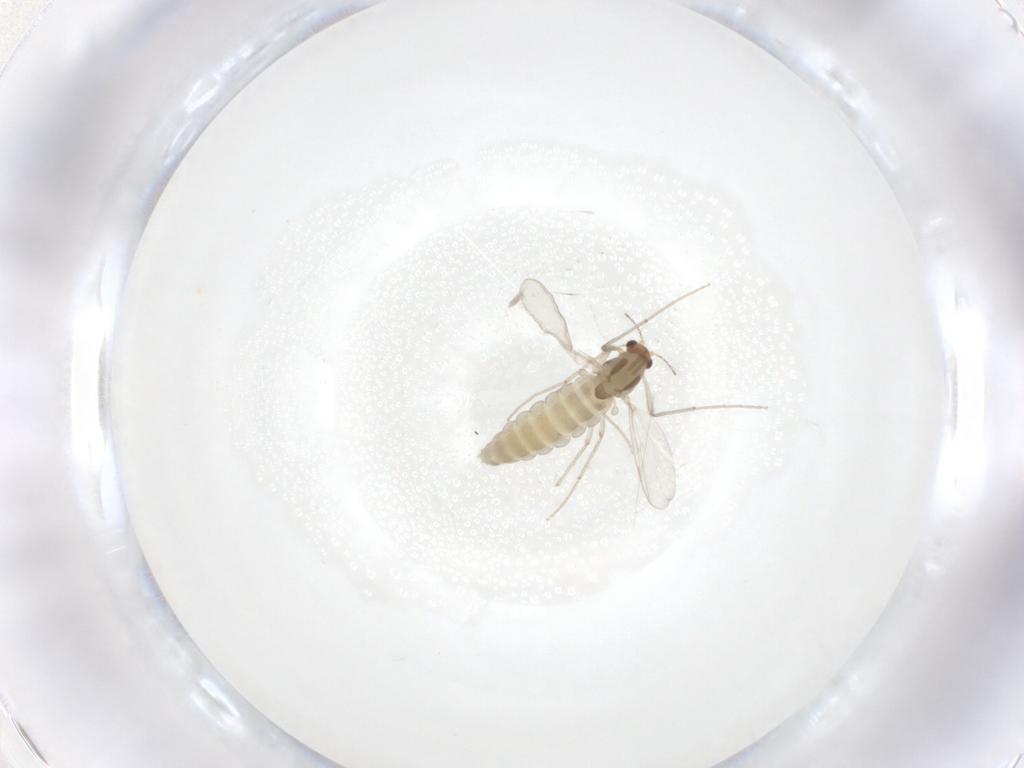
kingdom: Animalia
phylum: Arthropoda
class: Insecta
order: Diptera
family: Chironomidae
